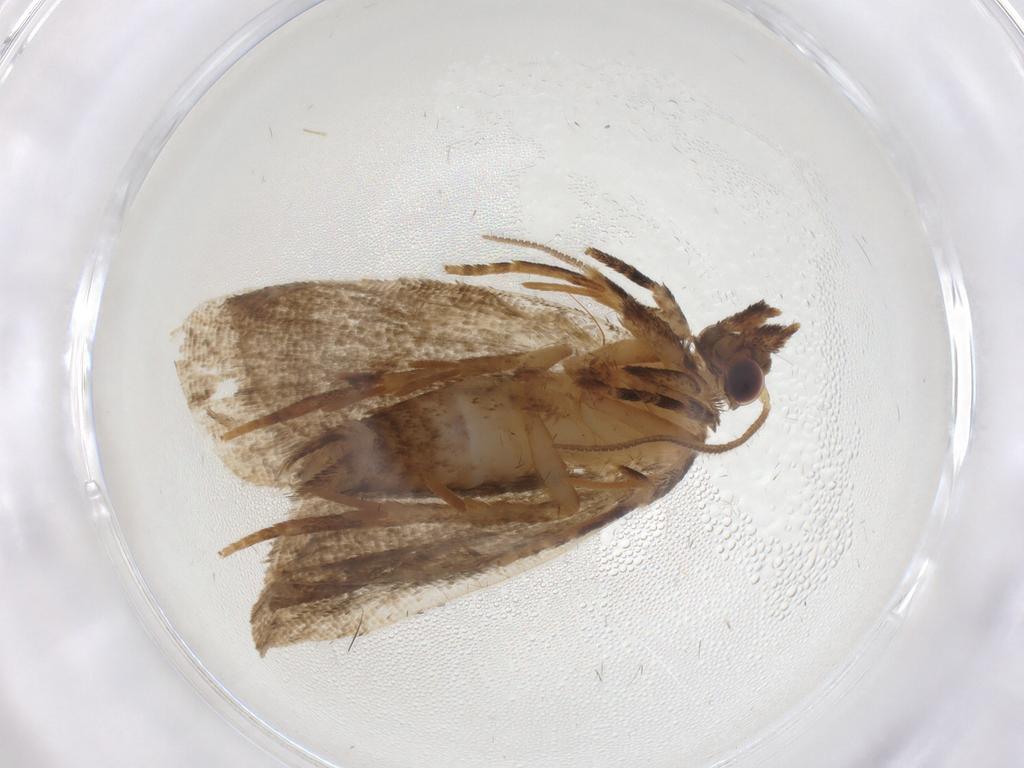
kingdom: Animalia
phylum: Arthropoda
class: Insecta
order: Lepidoptera
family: Tortricidae
